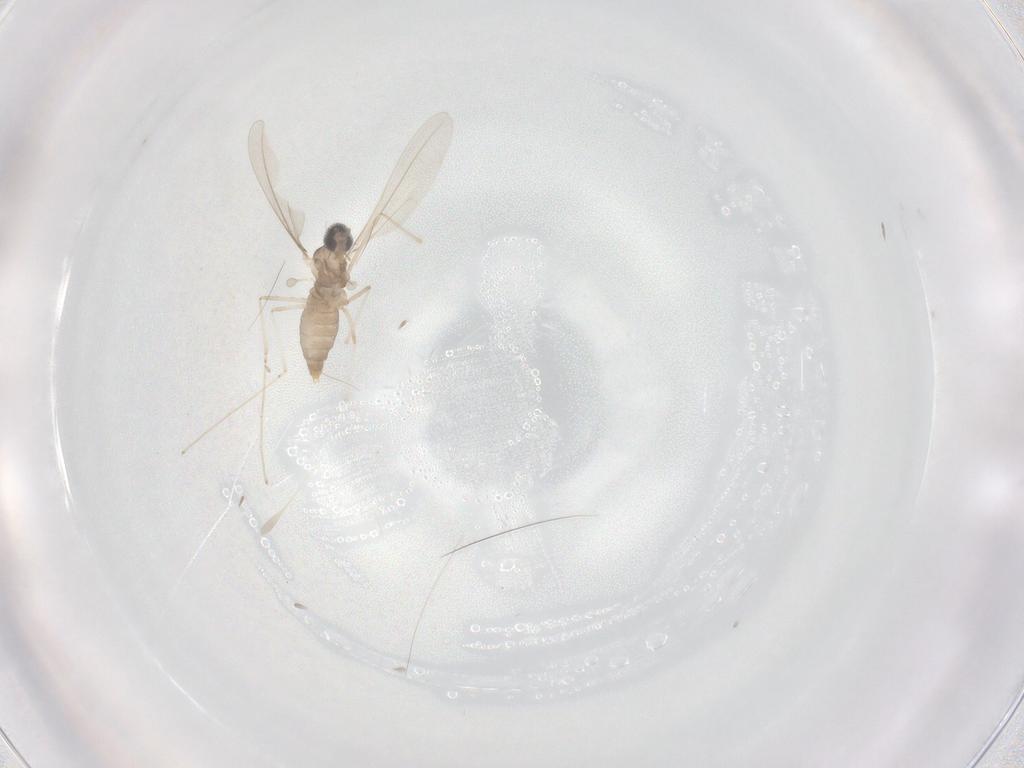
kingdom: Animalia
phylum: Arthropoda
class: Insecta
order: Diptera
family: Cecidomyiidae
